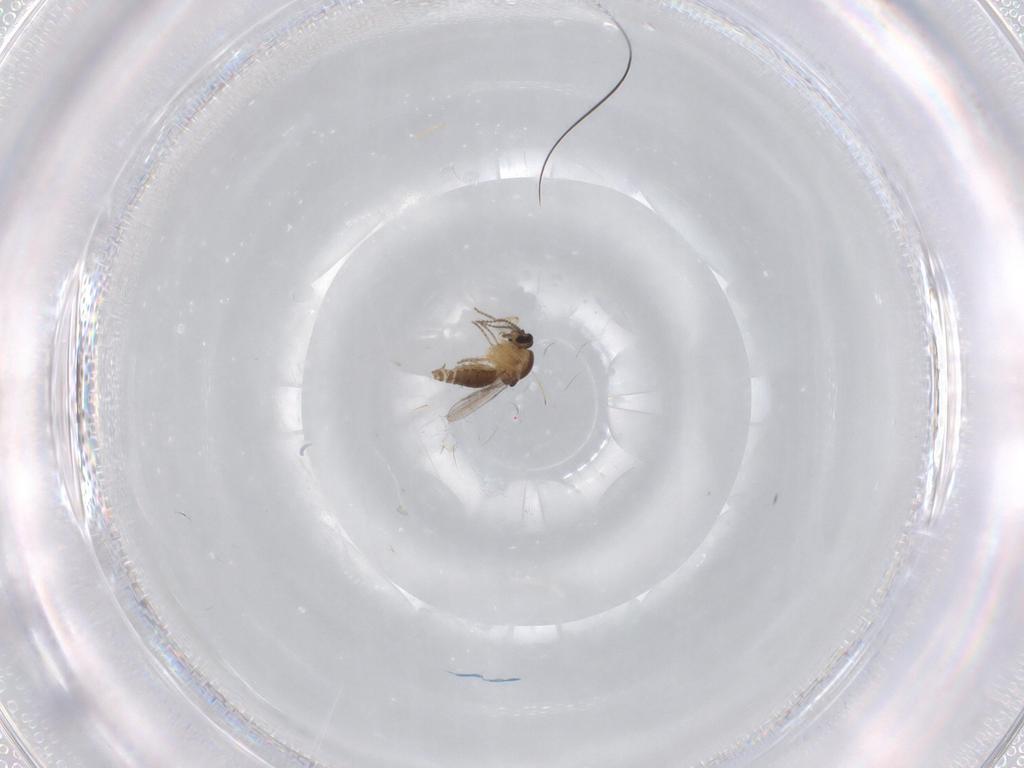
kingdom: Animalia
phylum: Arthropoda
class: Insecta
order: Diptera
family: Ceratopogonidae
